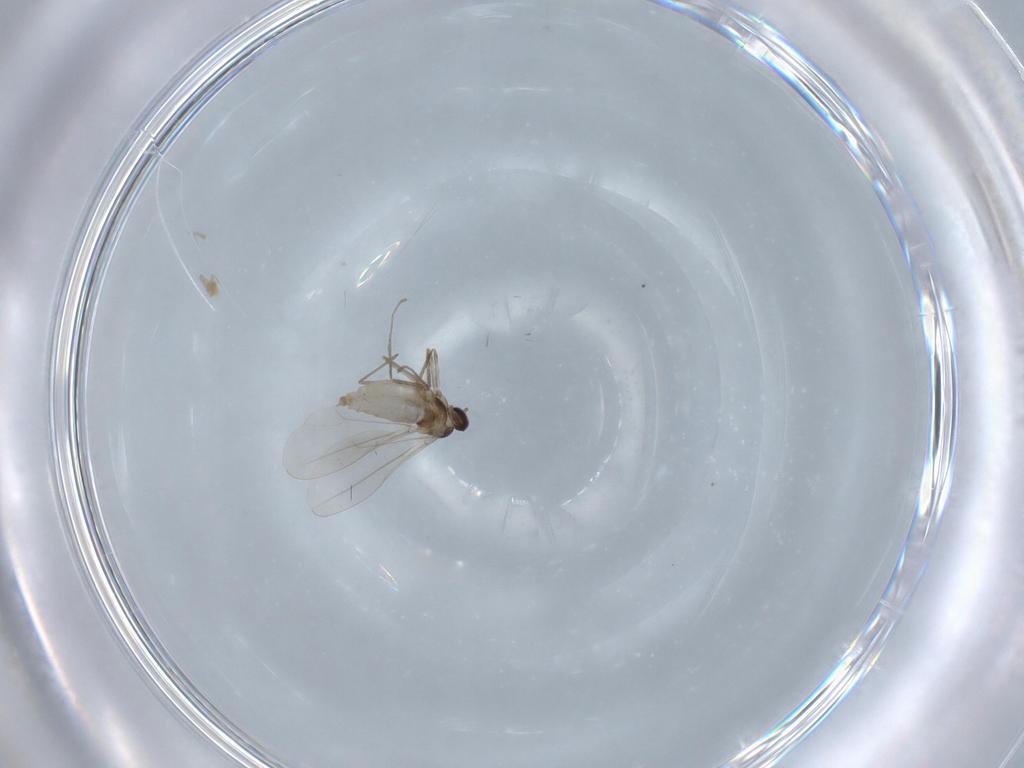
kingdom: Animalia
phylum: Arthropoda
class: Insecta
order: Diptera
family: Cecidomyiidae
